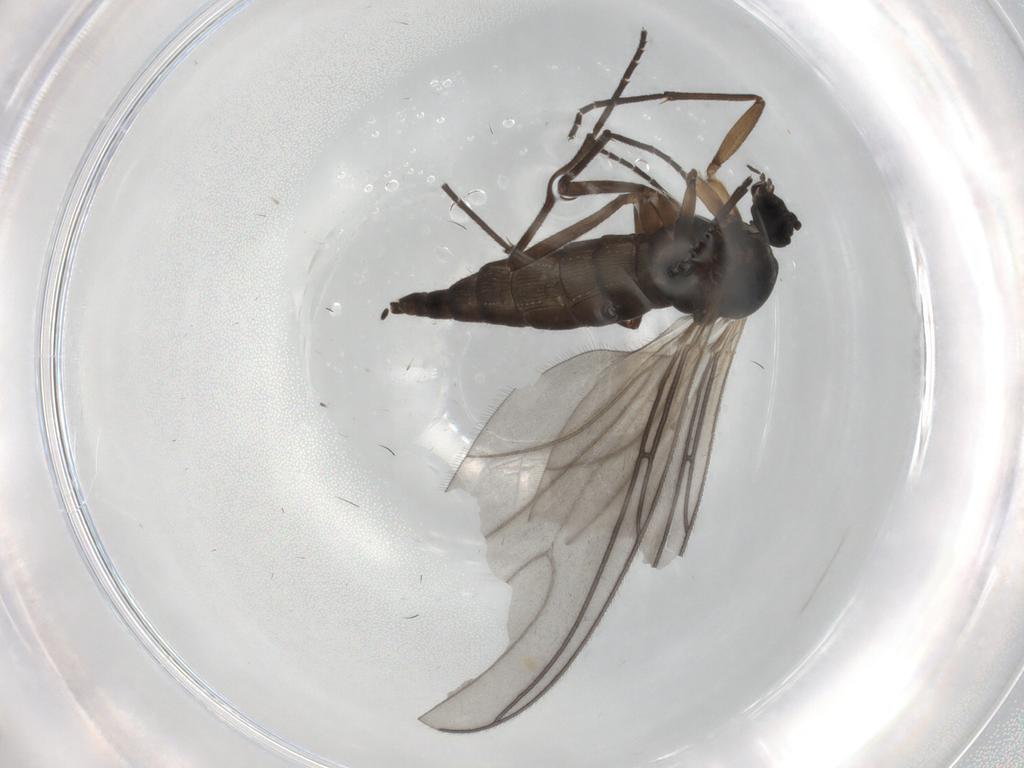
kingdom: Animalia
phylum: Arthropoda
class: Insecta
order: Diptera
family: Sciaridae
